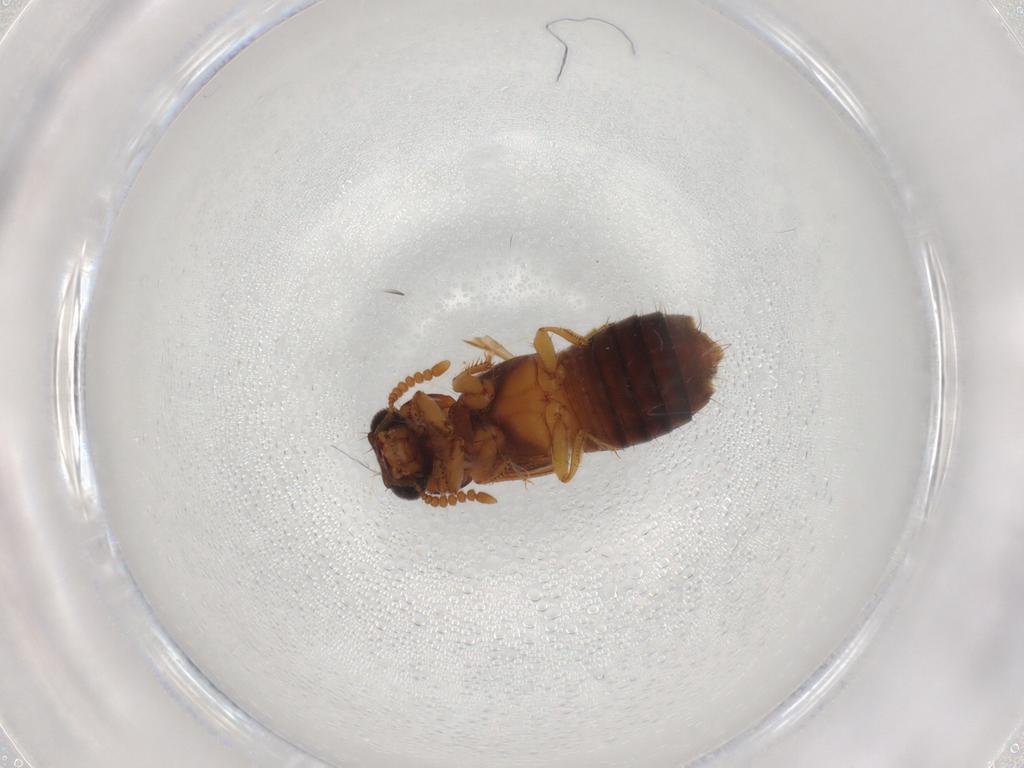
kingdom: Animalia
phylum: Arthropoda
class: Insecta
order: Coleoptera
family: Staphylinidae
